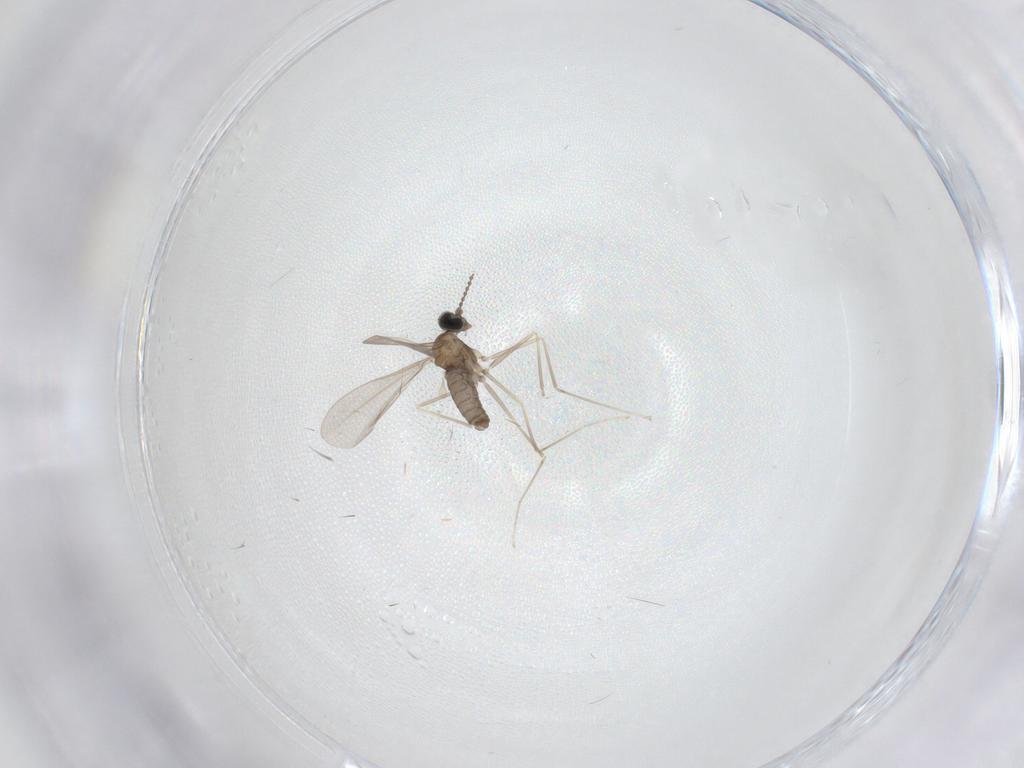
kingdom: Animalia
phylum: Arthropoda
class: Insecta
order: Diptera
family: Cecidomyiidae
